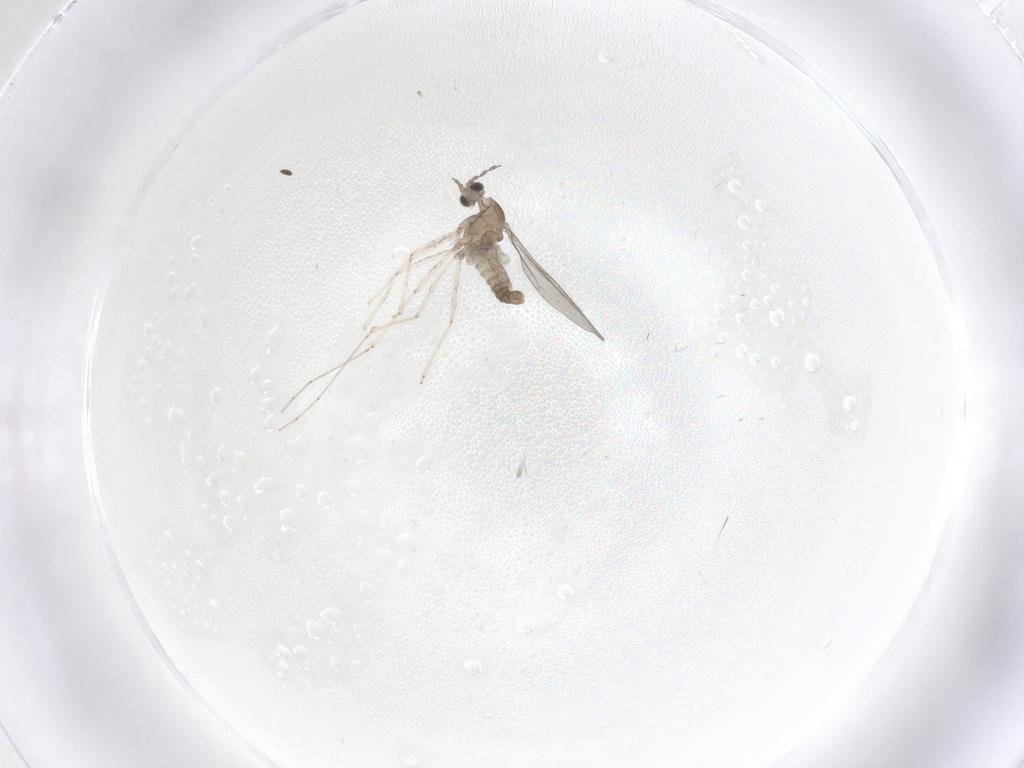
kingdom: Animalia
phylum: Arthropoda
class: Insecta
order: Diptera
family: Cecidomyiidae
